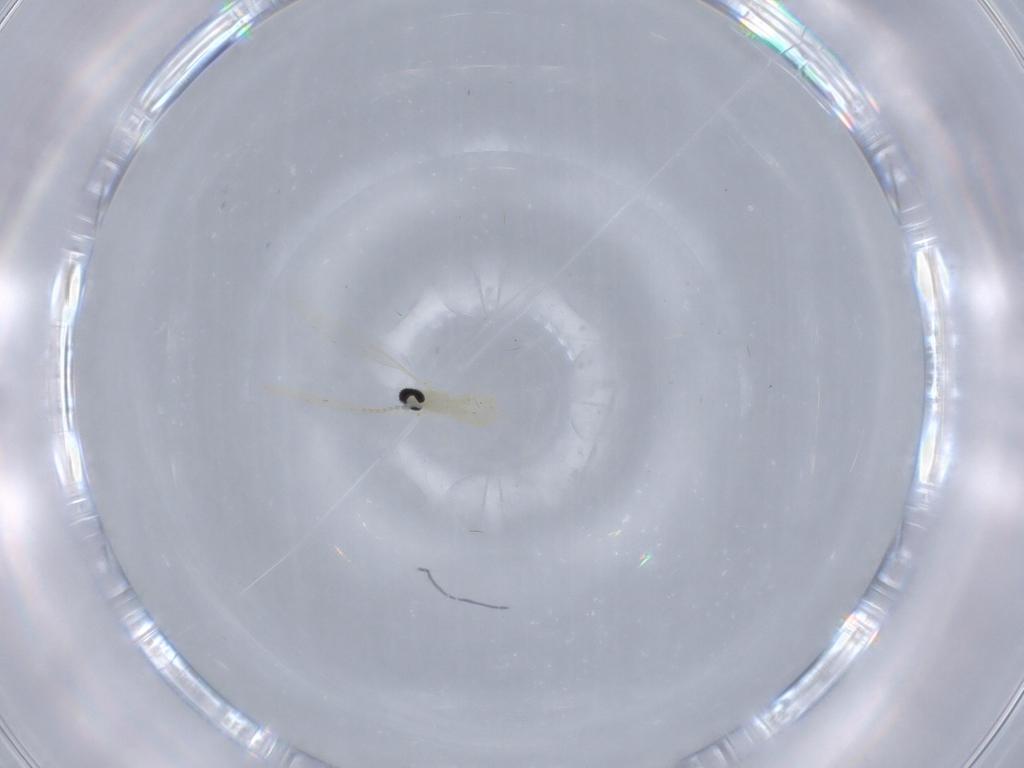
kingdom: Animalia
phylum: Arthropoda
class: Insecta
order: Diptera
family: Cecidomyiidae
